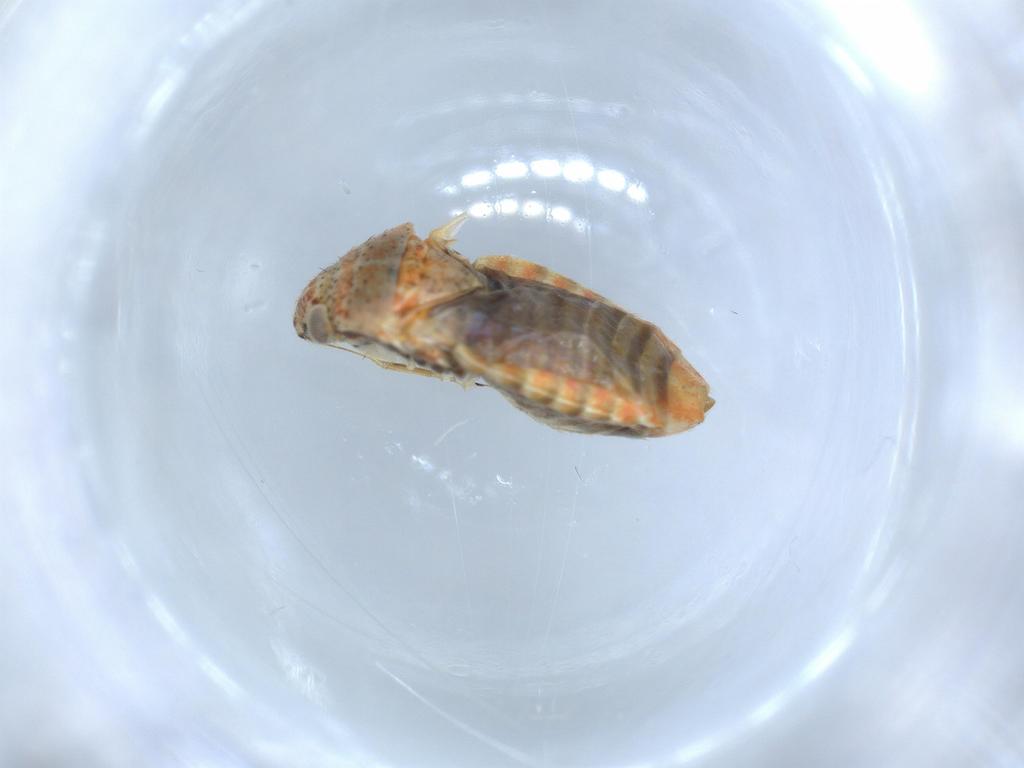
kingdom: Animalia
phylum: Arthropoda
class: Insecta
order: Hemiptera
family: Aphididae
